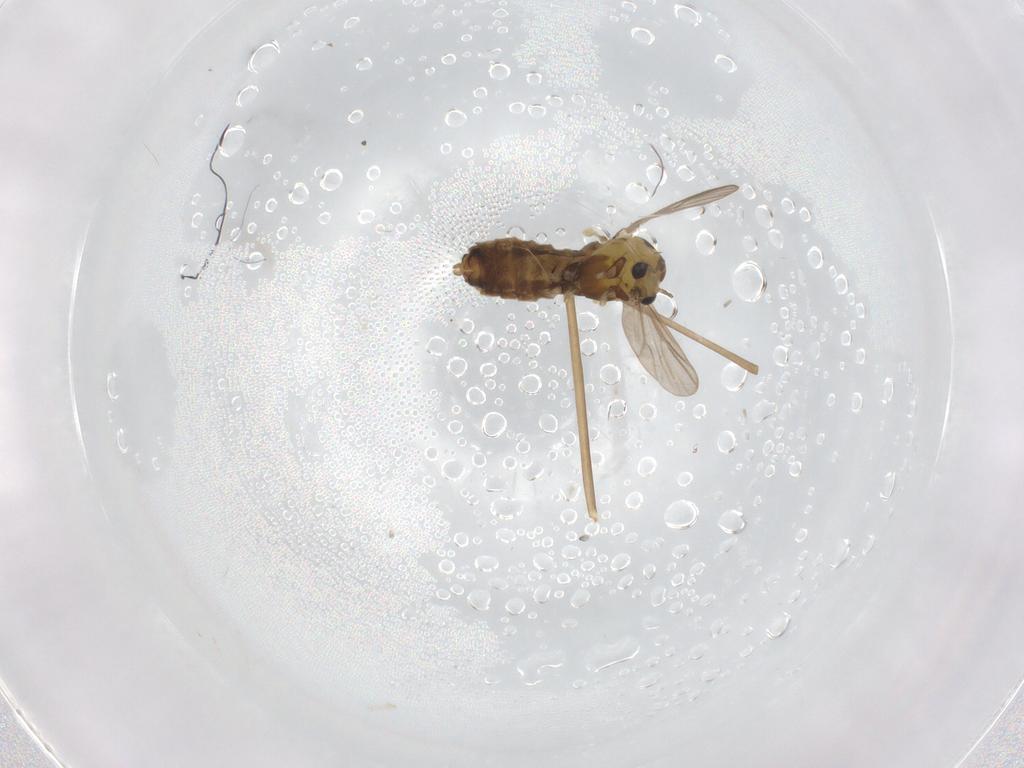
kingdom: Animalia
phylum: Arthropoda
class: Insecta
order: Diptera
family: Chironomidae
